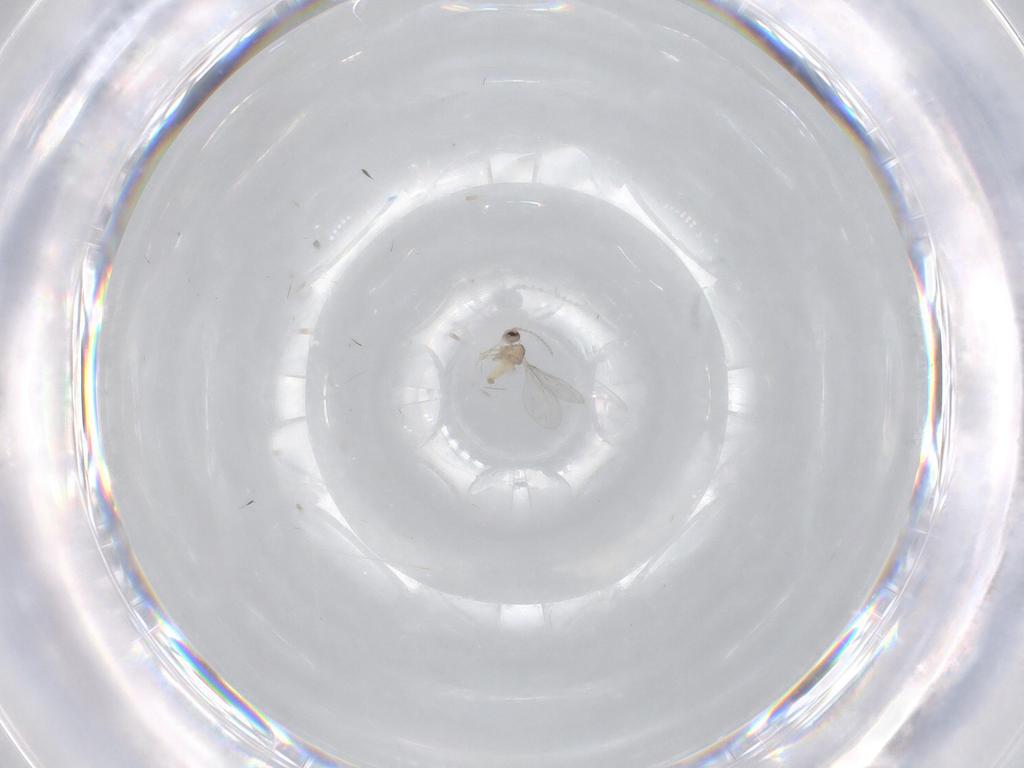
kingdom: Animalia
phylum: Arthropoda
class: Insecta
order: Diptera
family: Cecidomyiidae
